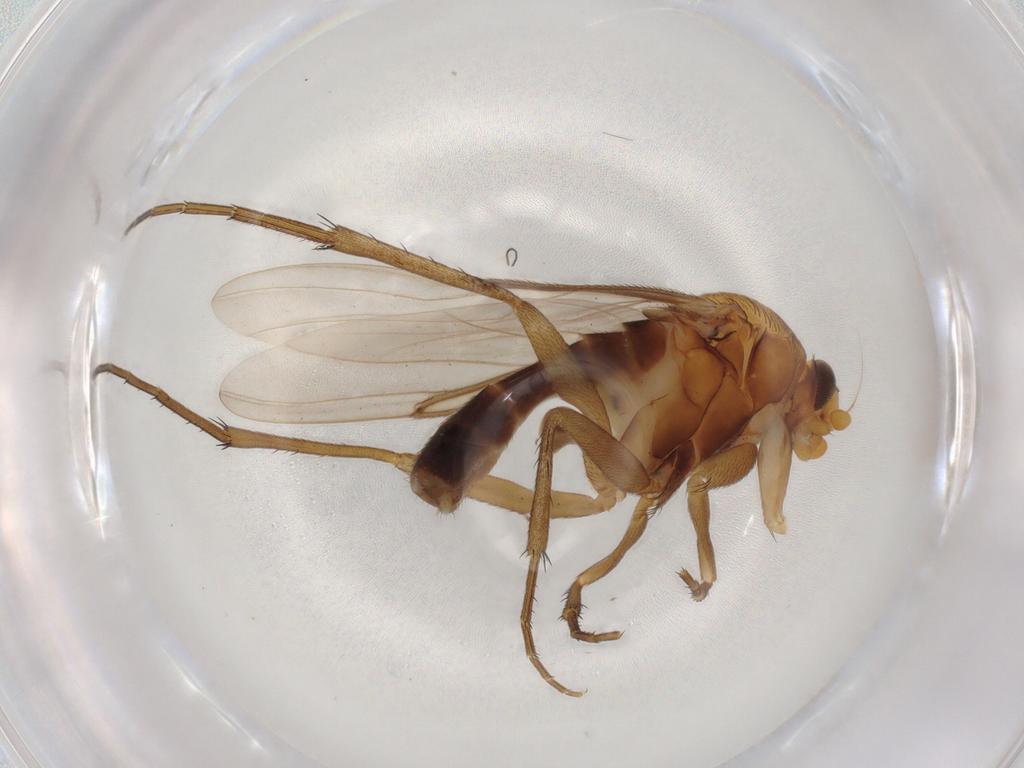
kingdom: Animalia
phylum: Arthropoda
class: Insecta
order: Diptera
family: Phoridae
